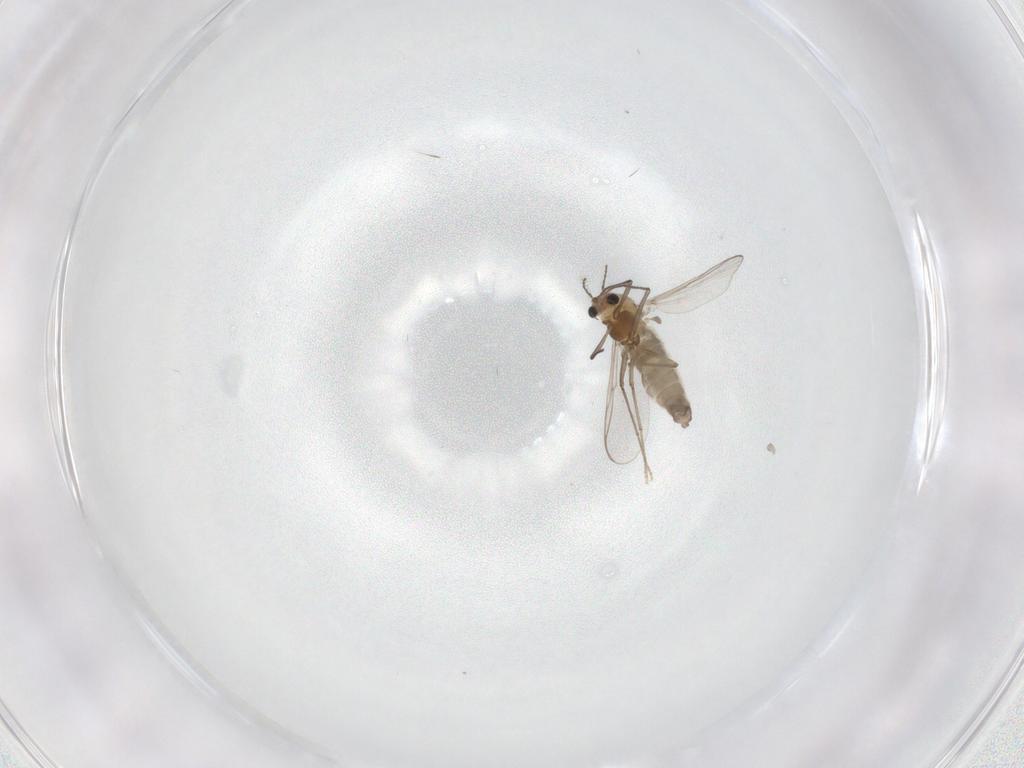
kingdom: Animalia
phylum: Arthropoda
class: Insecta
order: Diptera
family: Chironomidae
